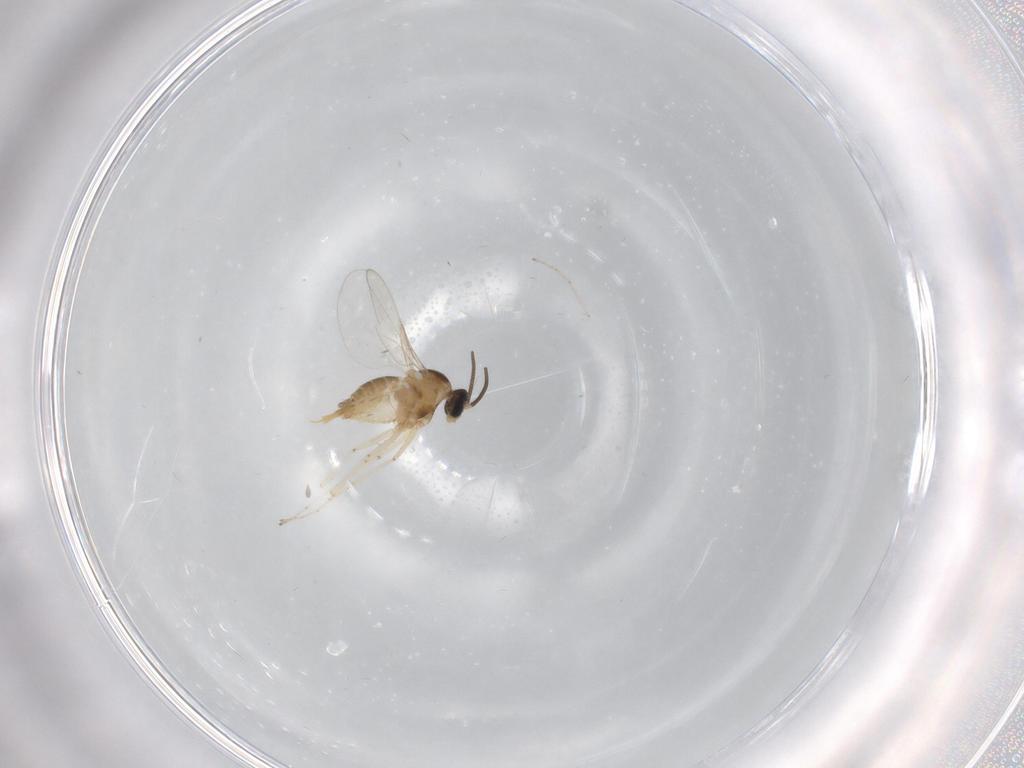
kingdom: Animalia
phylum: Arthropoda
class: Insecta
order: Diptera
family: Cecidomyiidae
